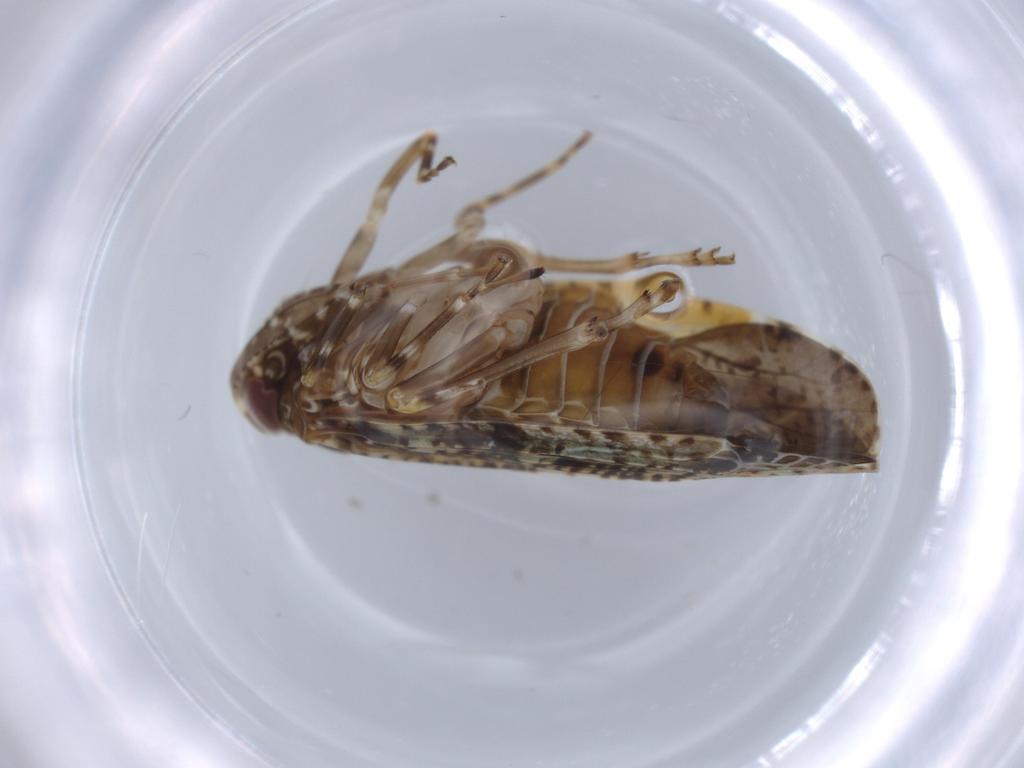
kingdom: Animalia
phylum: Arthropoda
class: Insecta
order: Hemiptera
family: Achilidae
